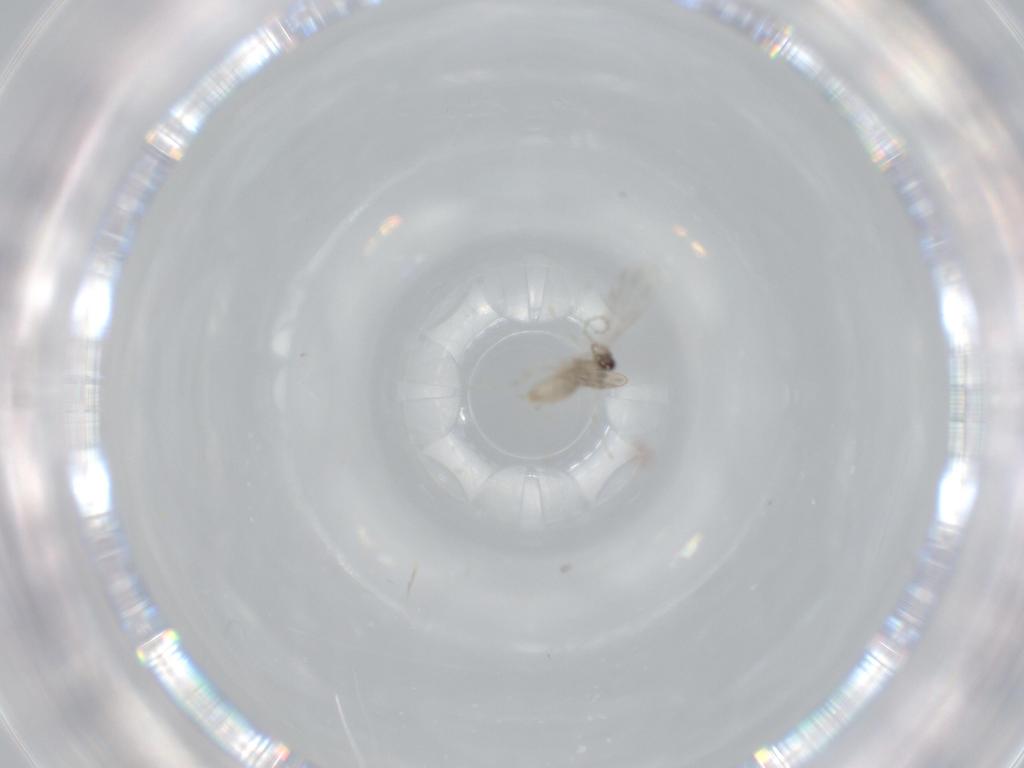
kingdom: Animalia
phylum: Arthropoda
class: Insecta
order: Diptera
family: Cecidomyiidae
